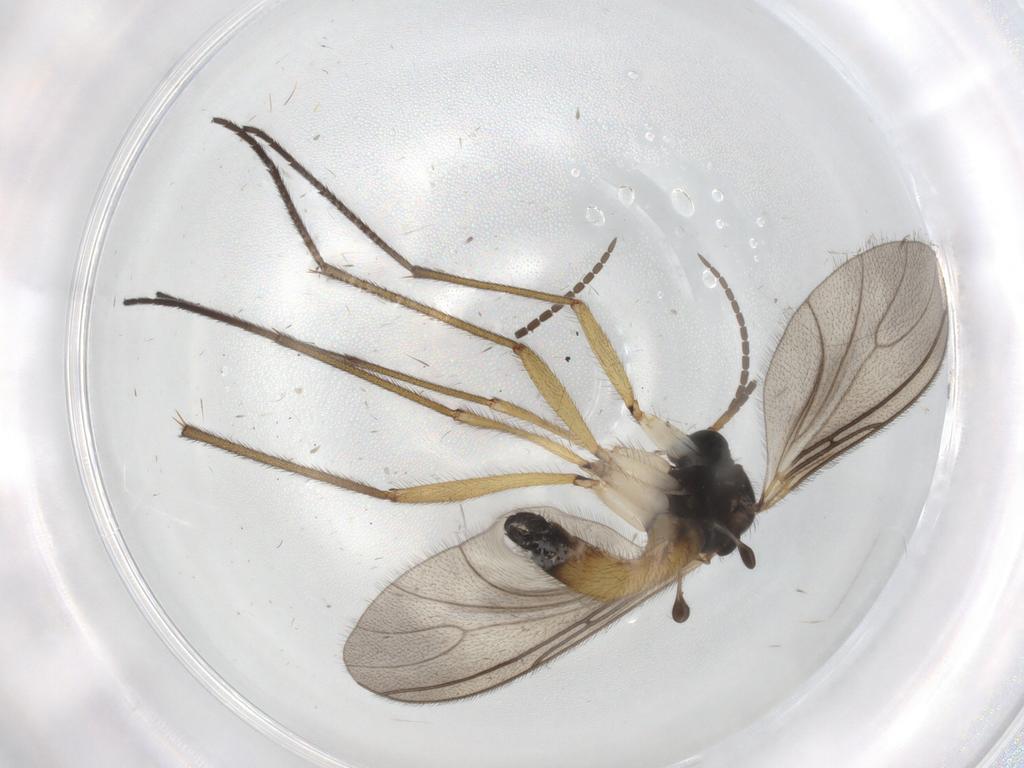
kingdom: Animalia
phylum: Arthropoda
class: Insecta
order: Diptera
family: Sciaridae
